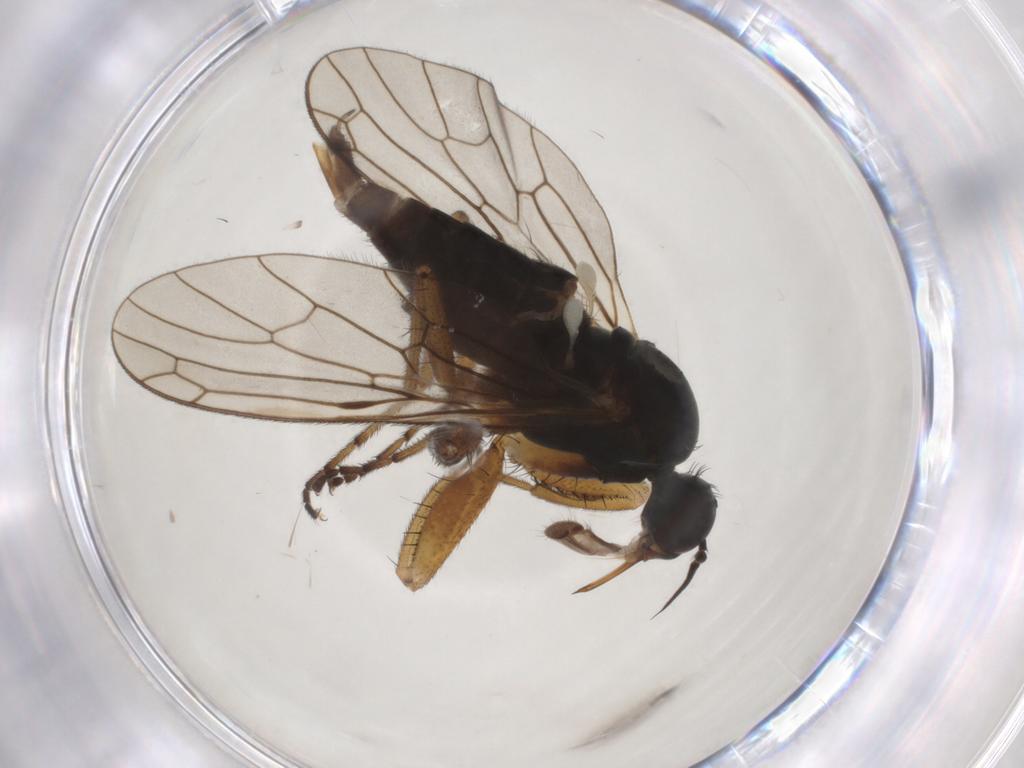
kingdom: Animalia
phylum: Arthropoda
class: Insecta
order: Diptera
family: Empididae
